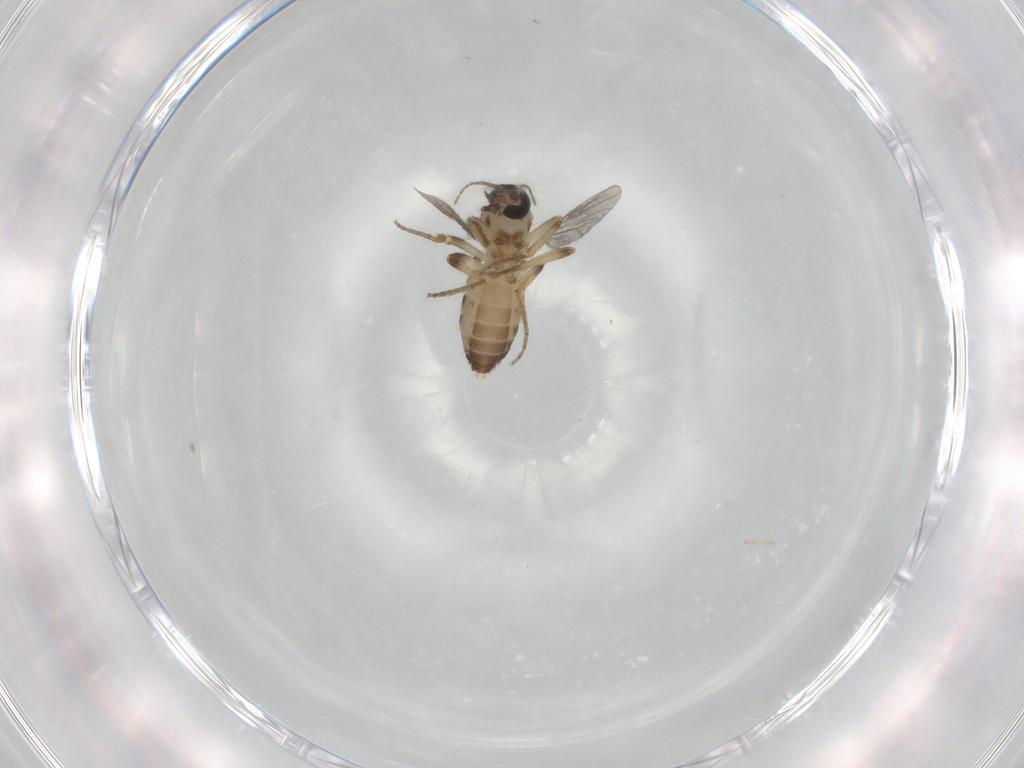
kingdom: Animalia
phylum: Arthropoda
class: Insecta
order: Diptera
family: Ceratopogonidae
